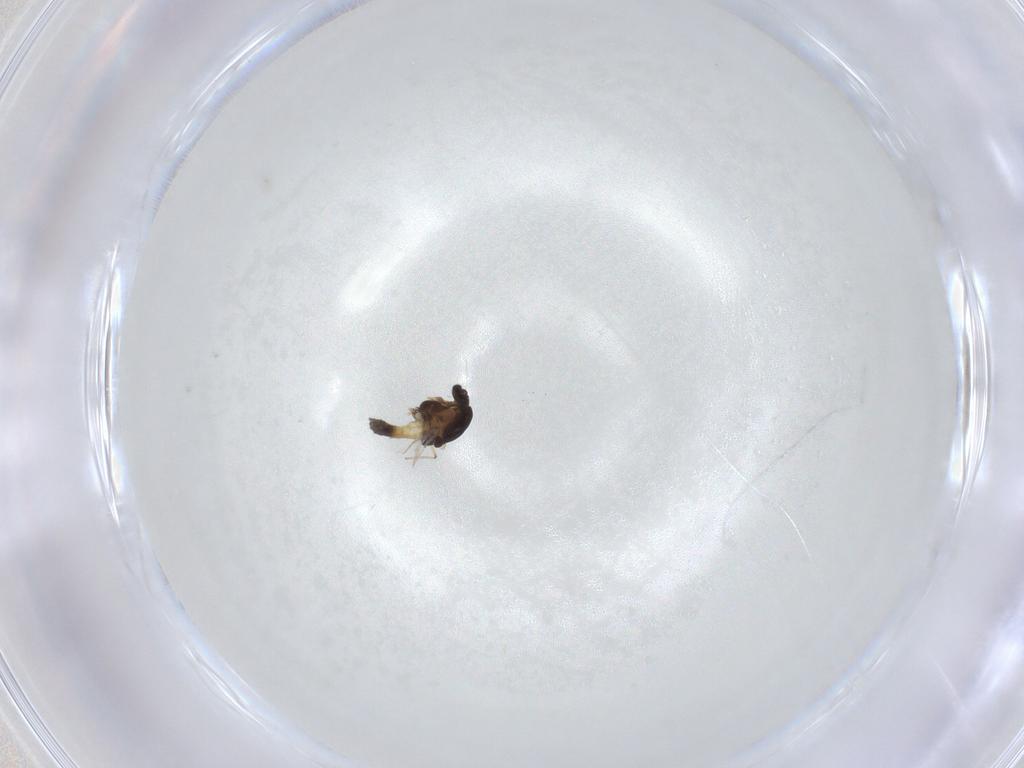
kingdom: Animalia
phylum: Arthropoda
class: Insecta
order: Diptera
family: Chironomidae
